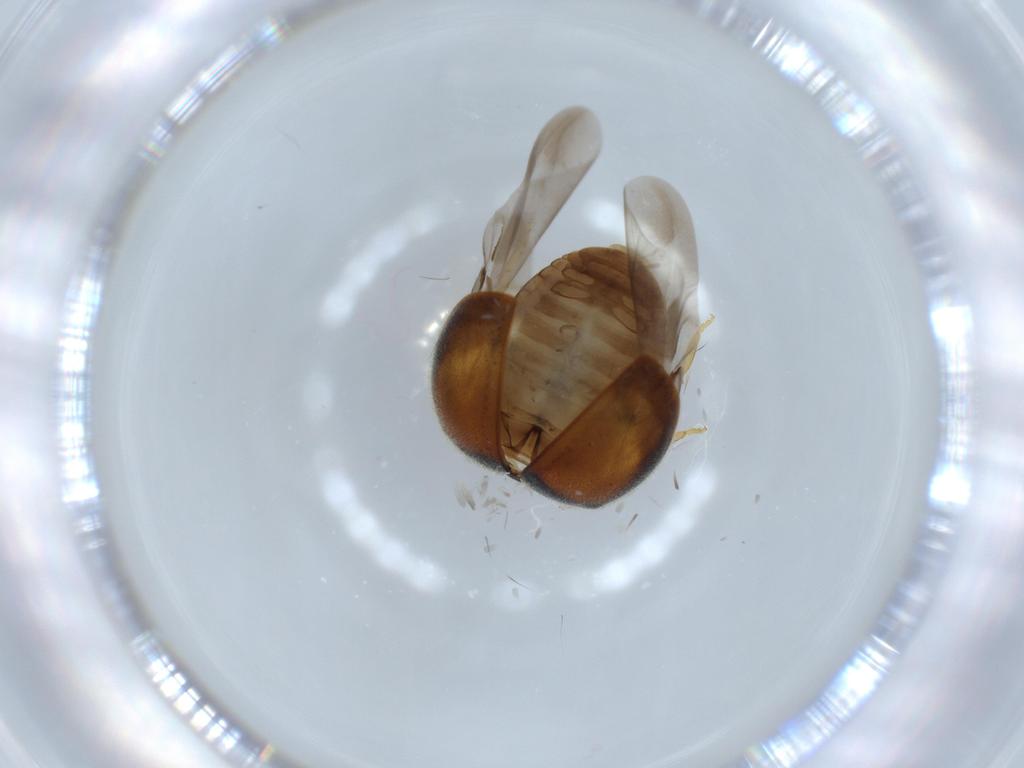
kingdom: Animalia
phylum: Arthropoda
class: Insecta
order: Coleoptera
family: Coccinellidae
